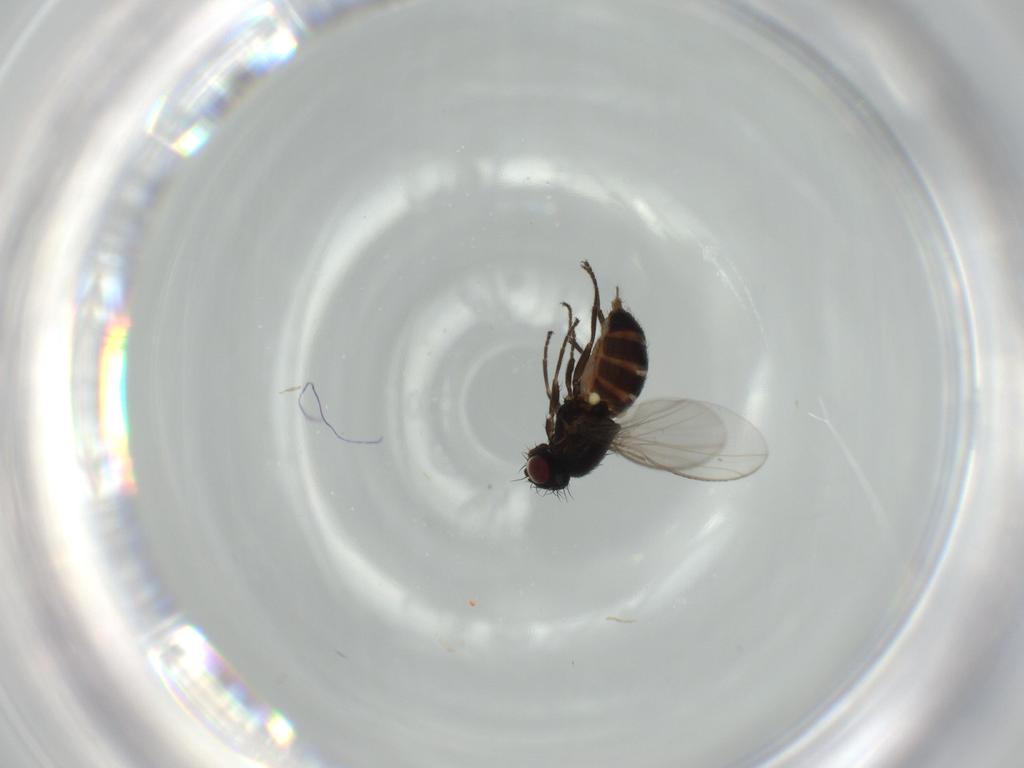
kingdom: Animalia
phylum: Arthropoda
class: Insecta
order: Diptera
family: Carnidae
